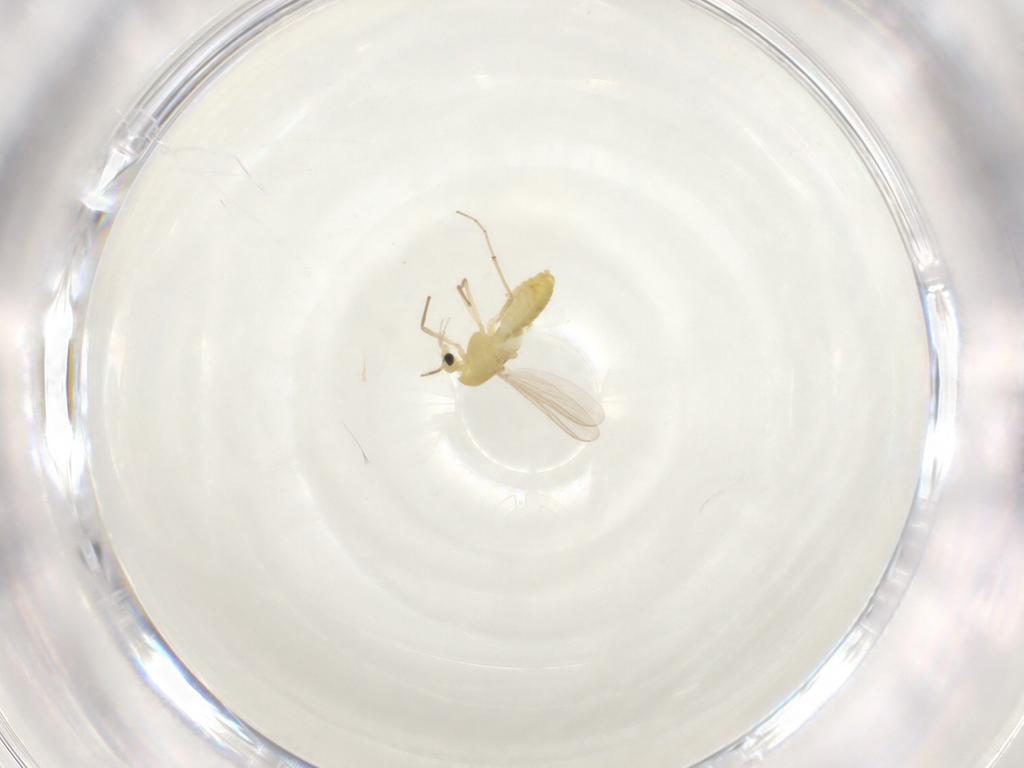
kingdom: Animalia
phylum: Arthropoda
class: Insecta
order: Diptera
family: Chironomidae
